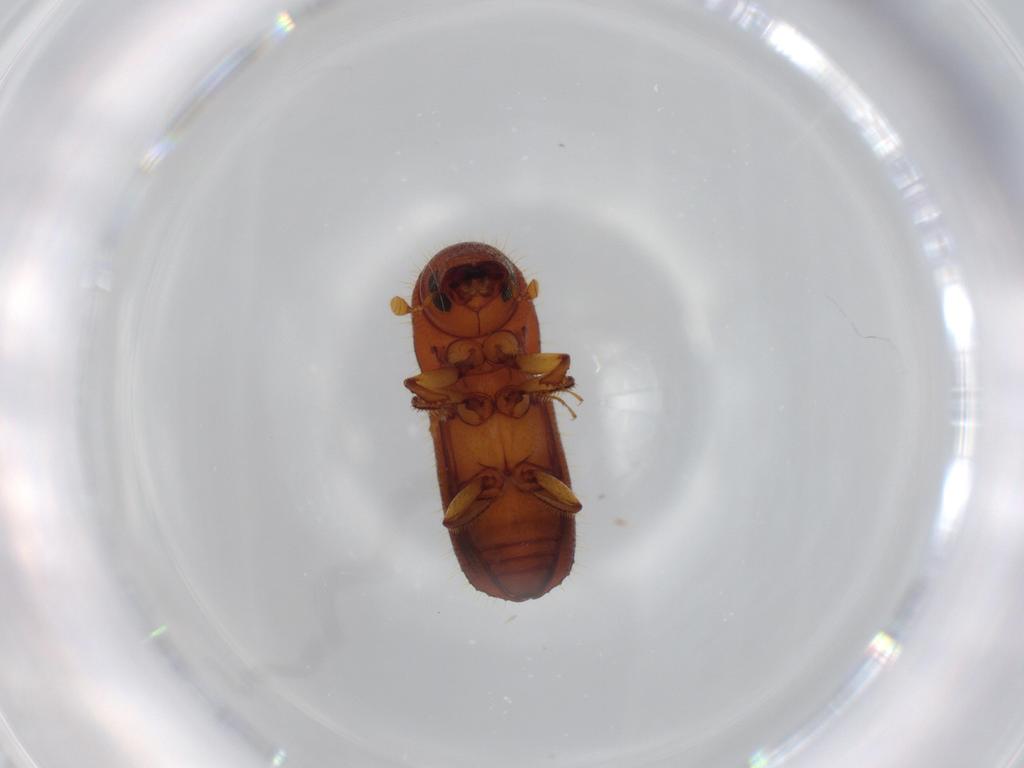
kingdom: Animalia
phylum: Arthropoda
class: Insecta
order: Coleoptera
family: Curculionidae
